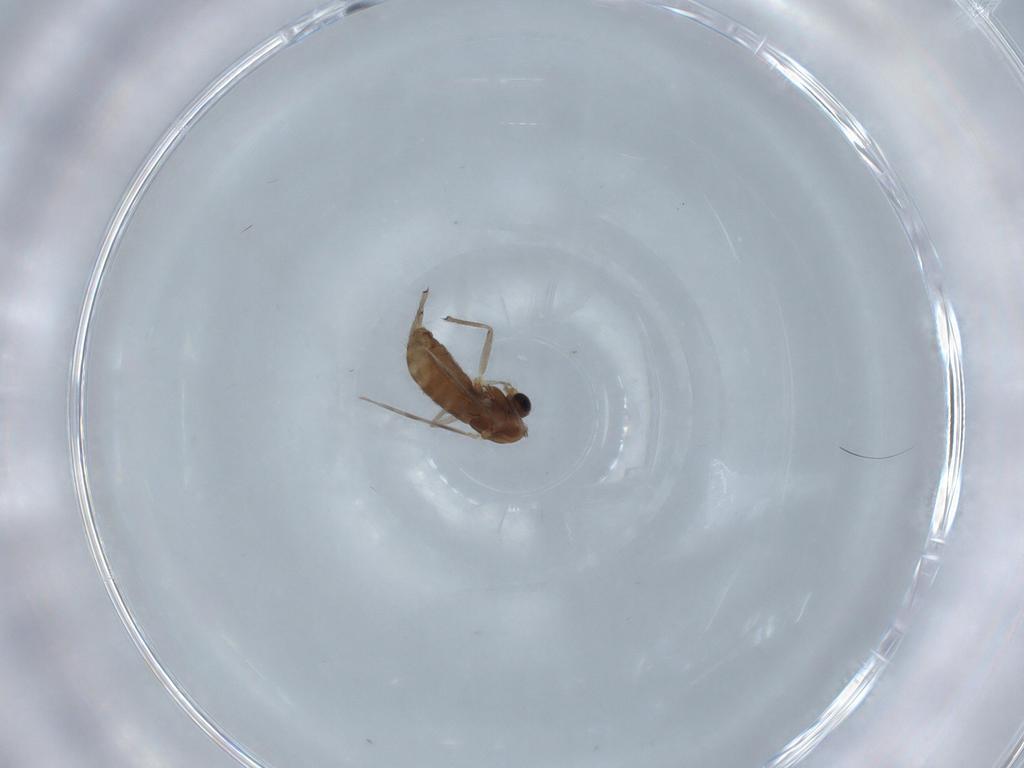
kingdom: Animalia
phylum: Arthropoda
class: Insecta
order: Diptera
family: Chironomidae
